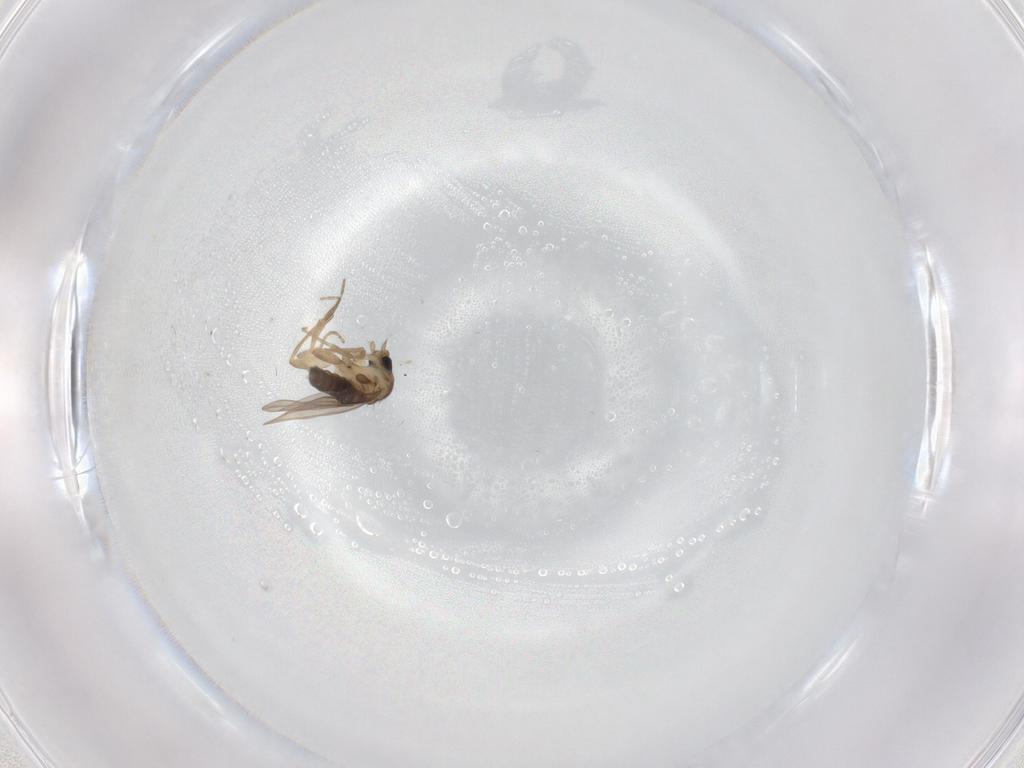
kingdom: Animalia
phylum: Arthropoda
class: Insecta
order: Diptera
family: Phoridae
